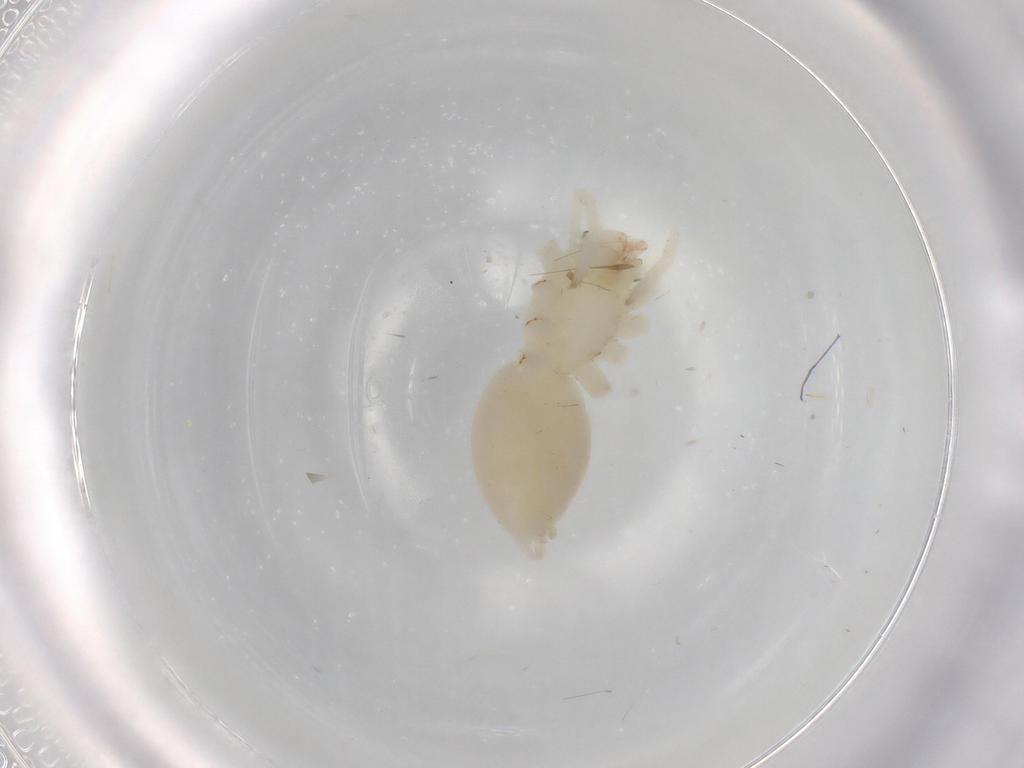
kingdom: Animalia
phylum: Arthropoda
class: Arachnida
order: Araneae
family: Anyphaenidae
